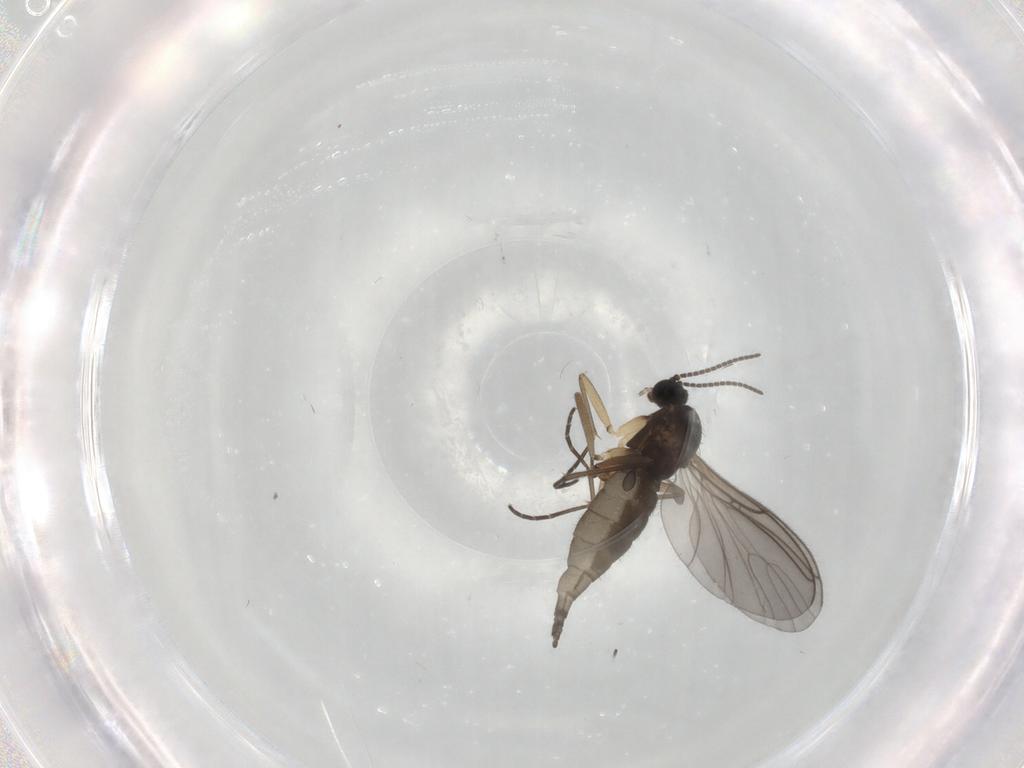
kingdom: Animalia
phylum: Arthropoda
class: Insecta
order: Diptera
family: Sciaridae
